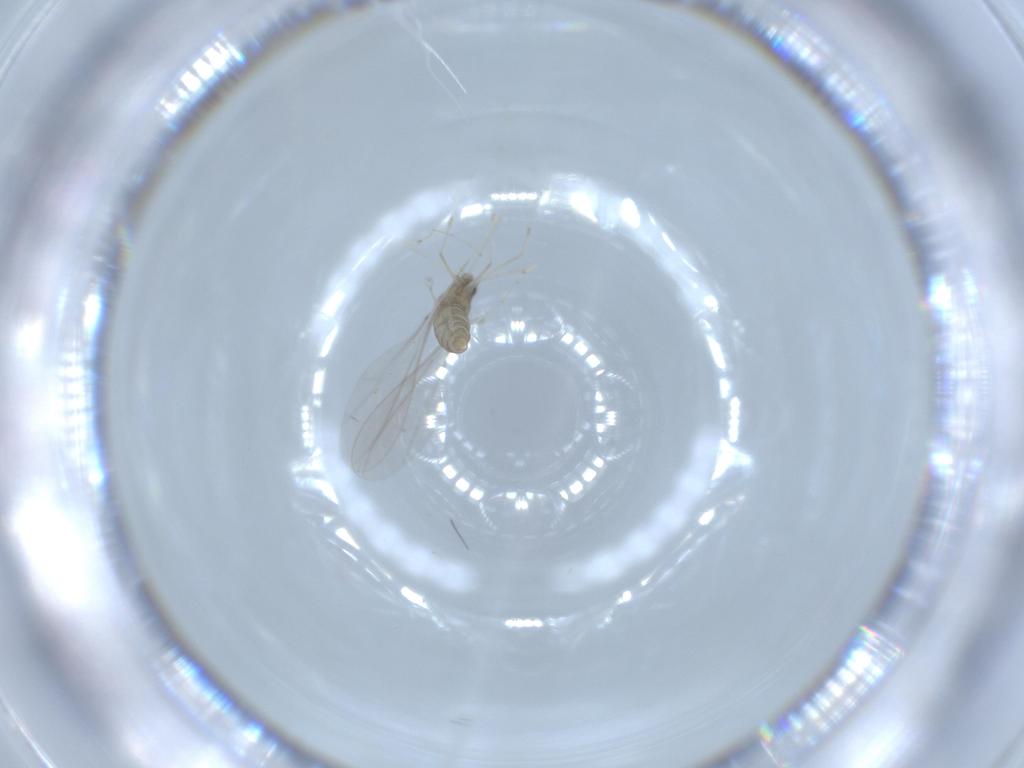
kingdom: Animalia
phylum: Arthropoda
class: Insecta
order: Diptera
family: Cecidomyiidae
